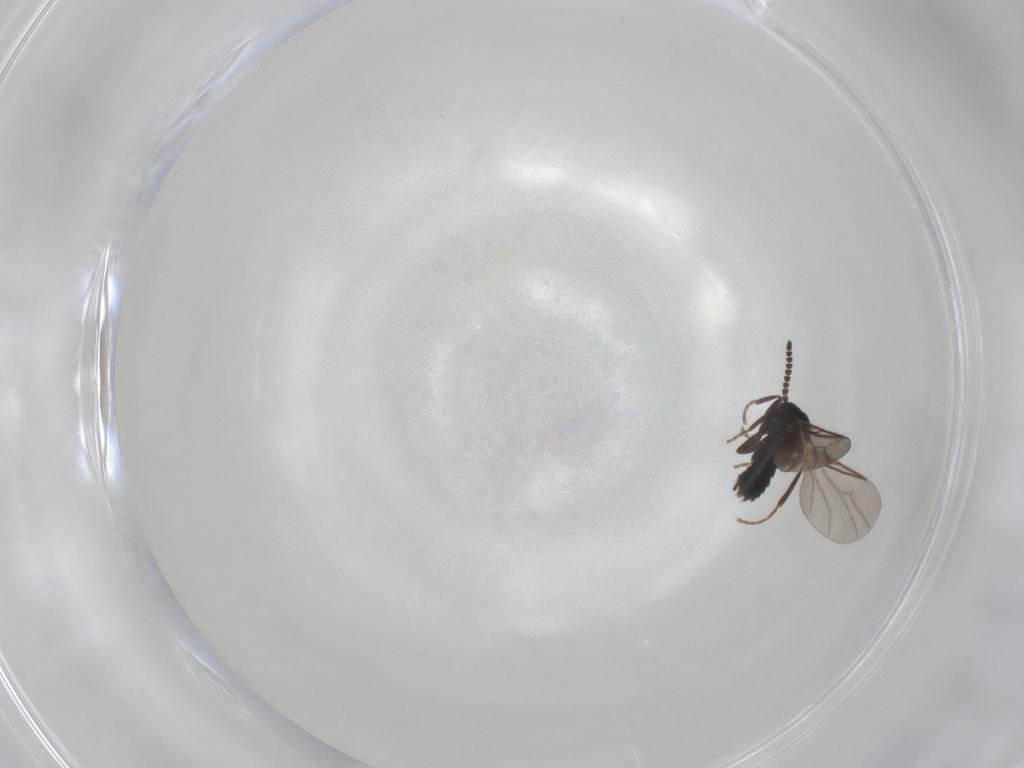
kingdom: Animalia
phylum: Arthropoda
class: Insecta
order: Diptera
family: Scatopsidae
